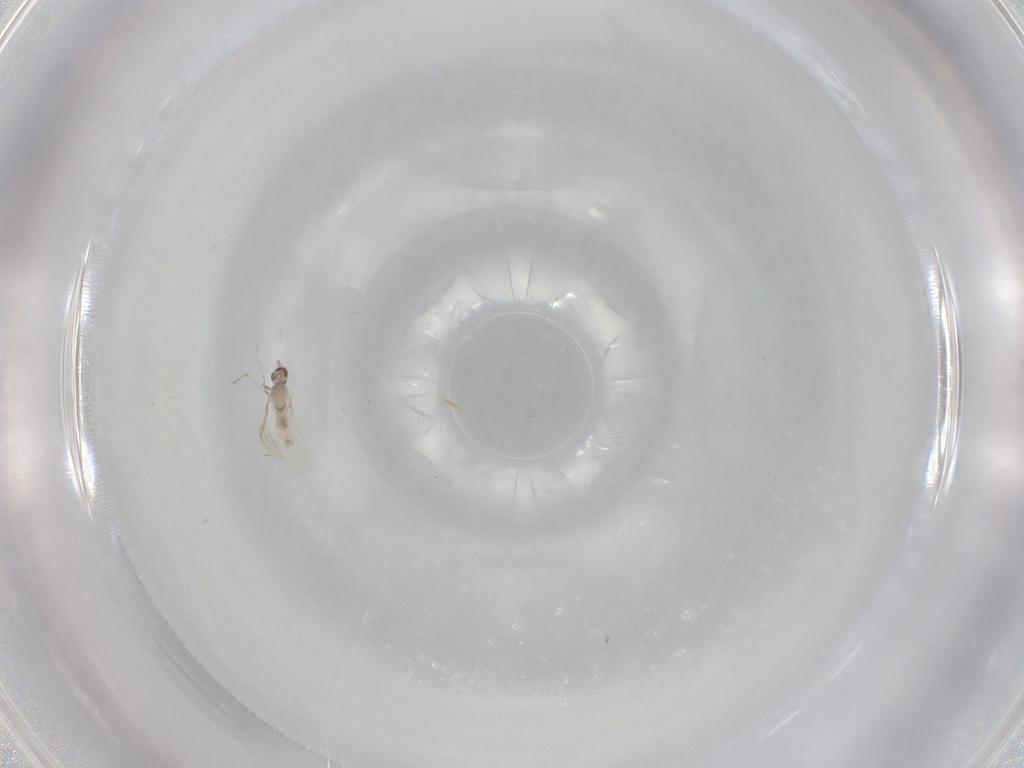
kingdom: Animalia
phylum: Arthropoda
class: Insecta
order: Diptera
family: Cecidomyiidae
